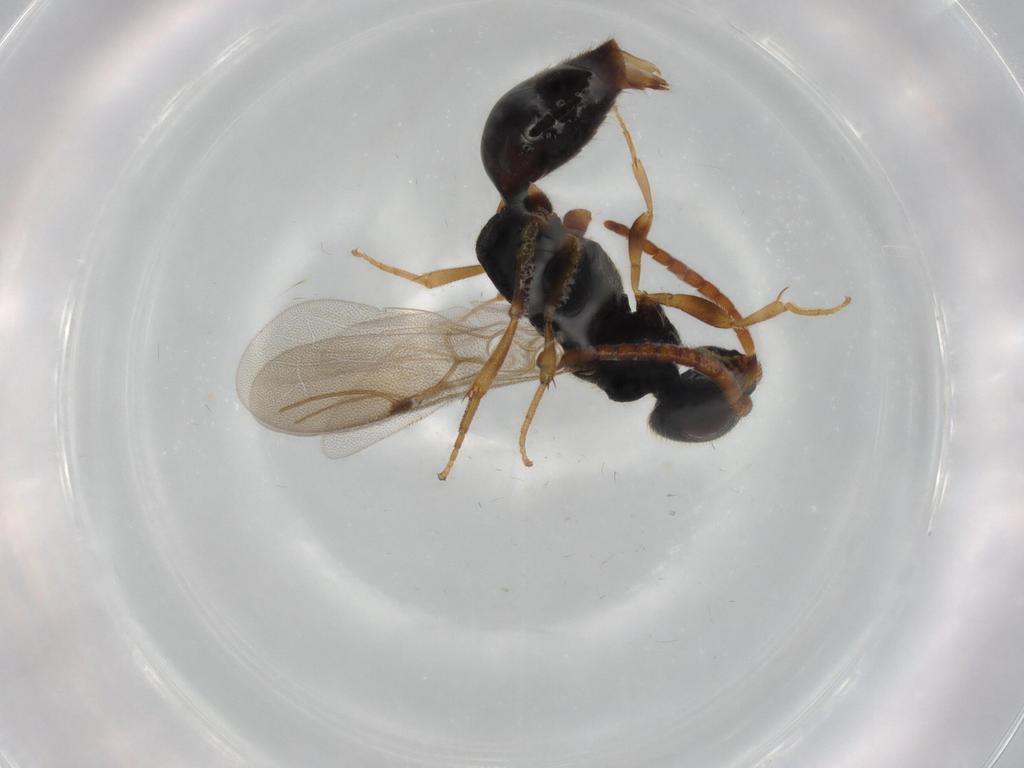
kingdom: Animalia
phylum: Arthropoda
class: Insecta
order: Hymenoptera
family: Bethylidae
